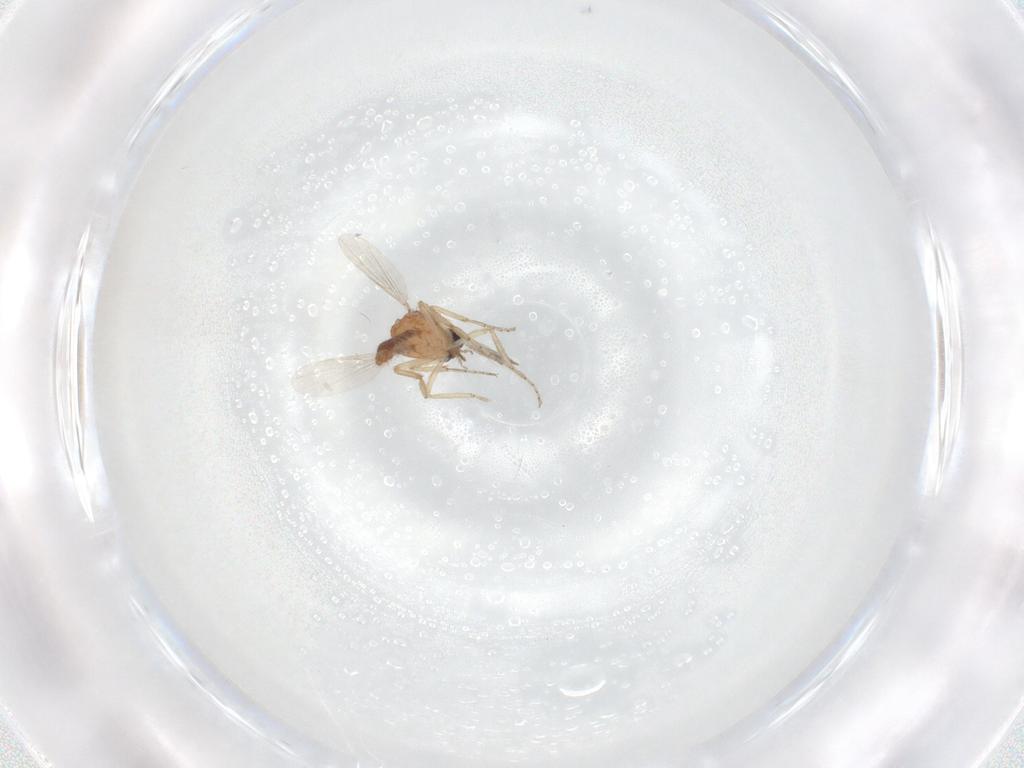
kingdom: Animalia
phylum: Arthropoda
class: Insecta
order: Diptera
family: Ceratopogonidae
